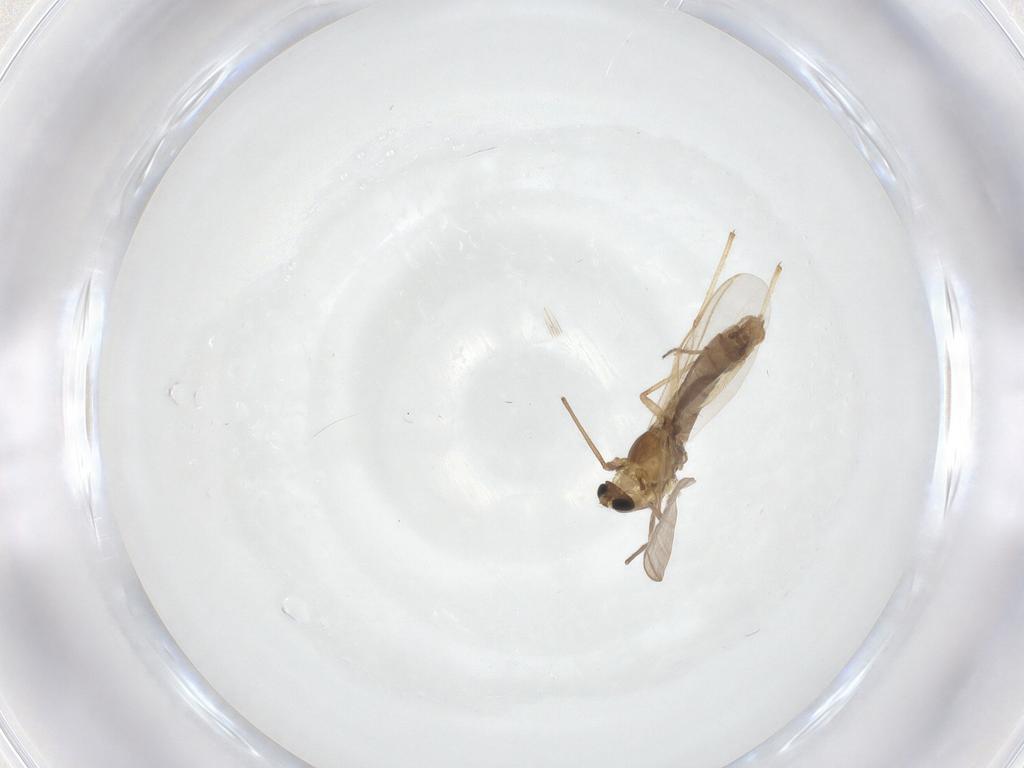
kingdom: Animalia
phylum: Arthropoda
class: Insecta
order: Diptera
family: Chironomidae
